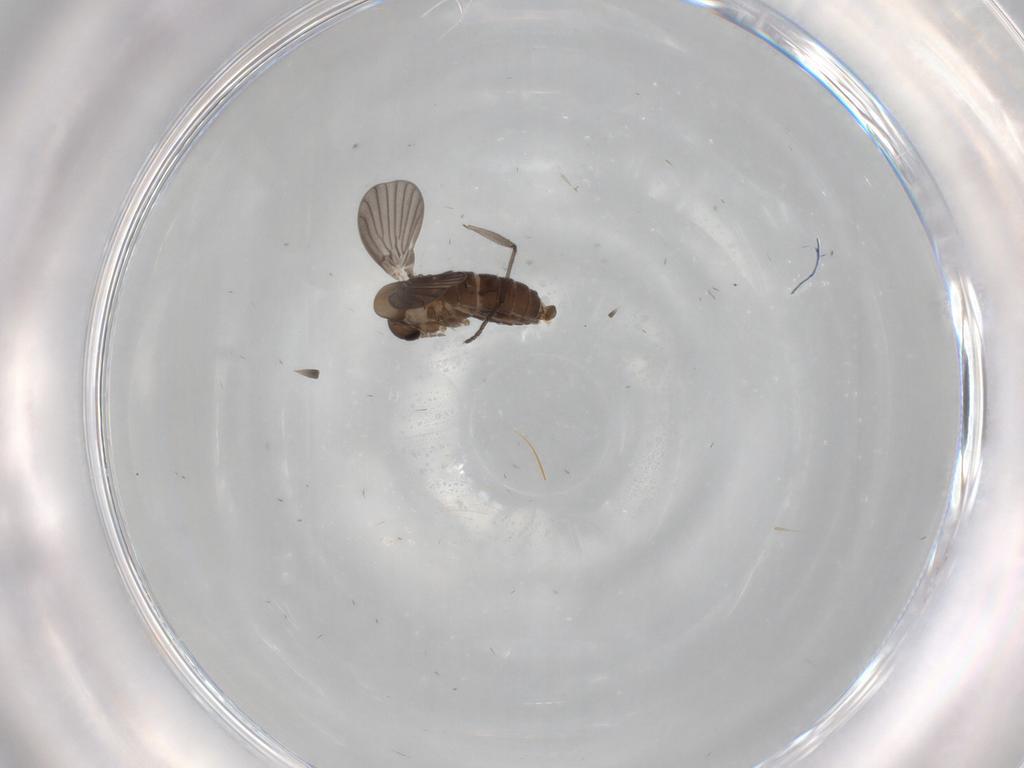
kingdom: Animalia
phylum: Arthropoda
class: Insecta
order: Diptera
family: Sciaridae
